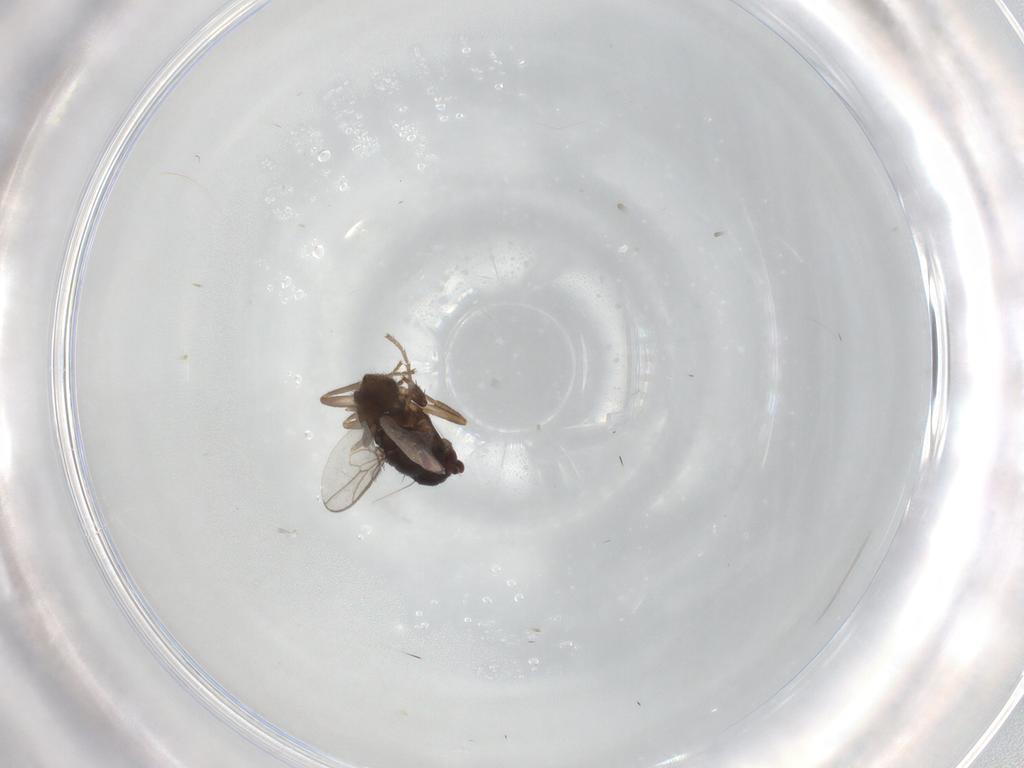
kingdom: Animalia
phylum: Arthropoda
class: Insecta
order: Diptera
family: Sphaeroceridae
